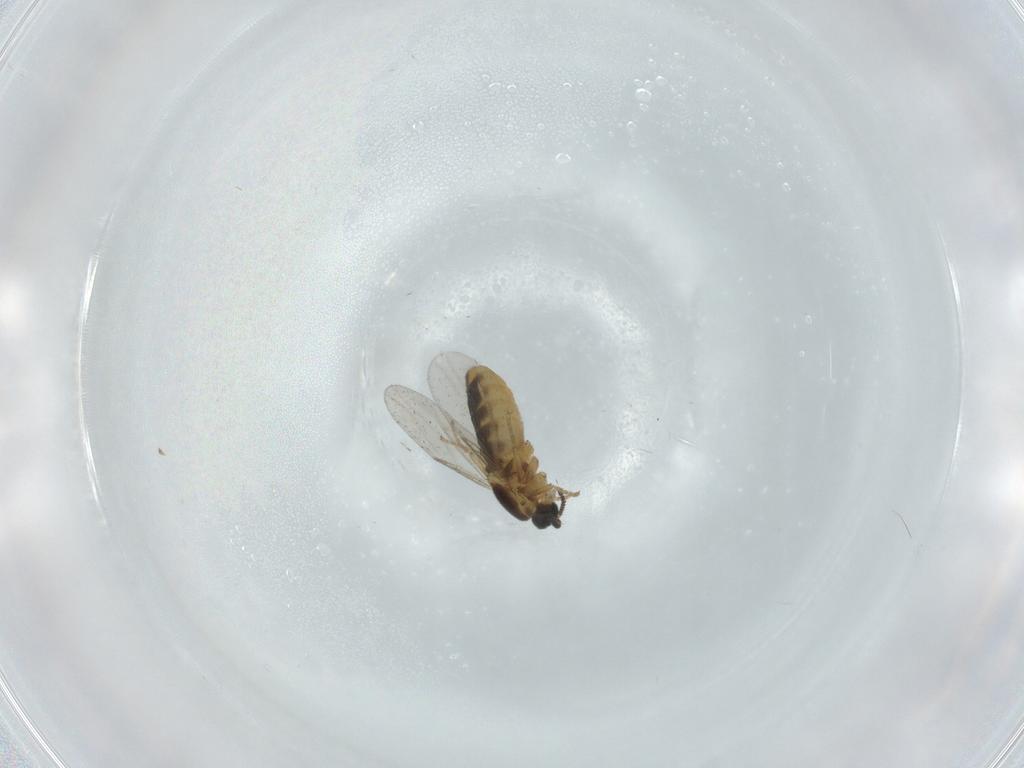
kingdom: Animalia
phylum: Arthropoda
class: Insecta
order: Diptera
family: Scatopsidae
